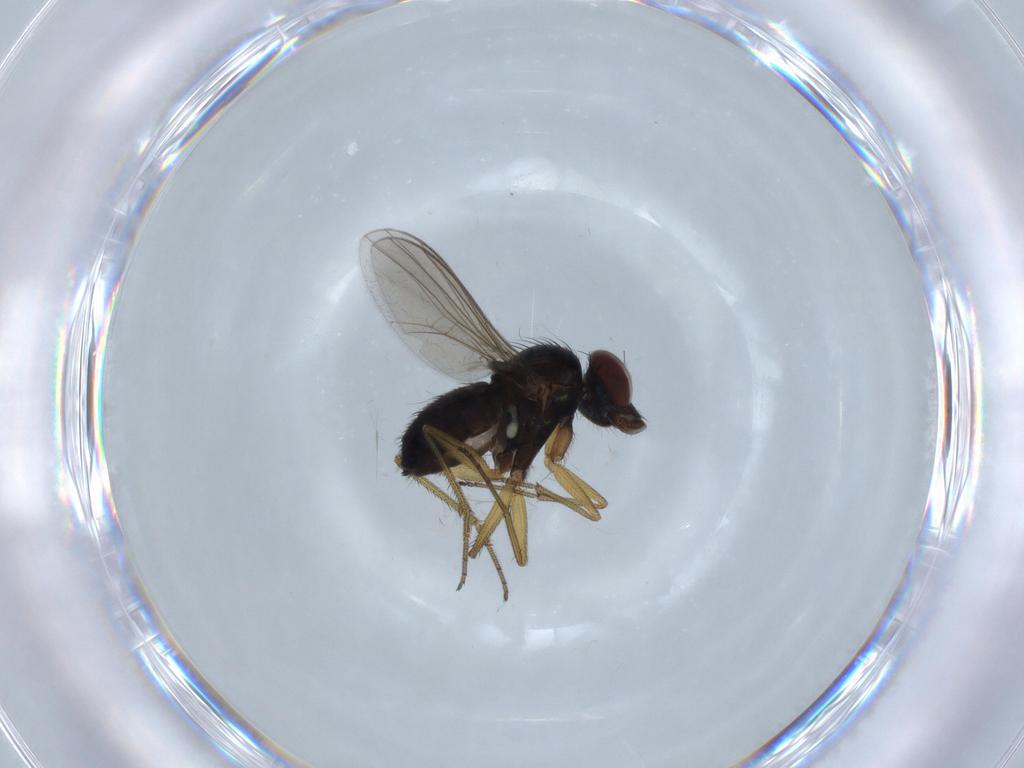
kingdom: Animalia
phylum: Arthropoda
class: Insecta
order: Diptera
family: Dolichopodidae
